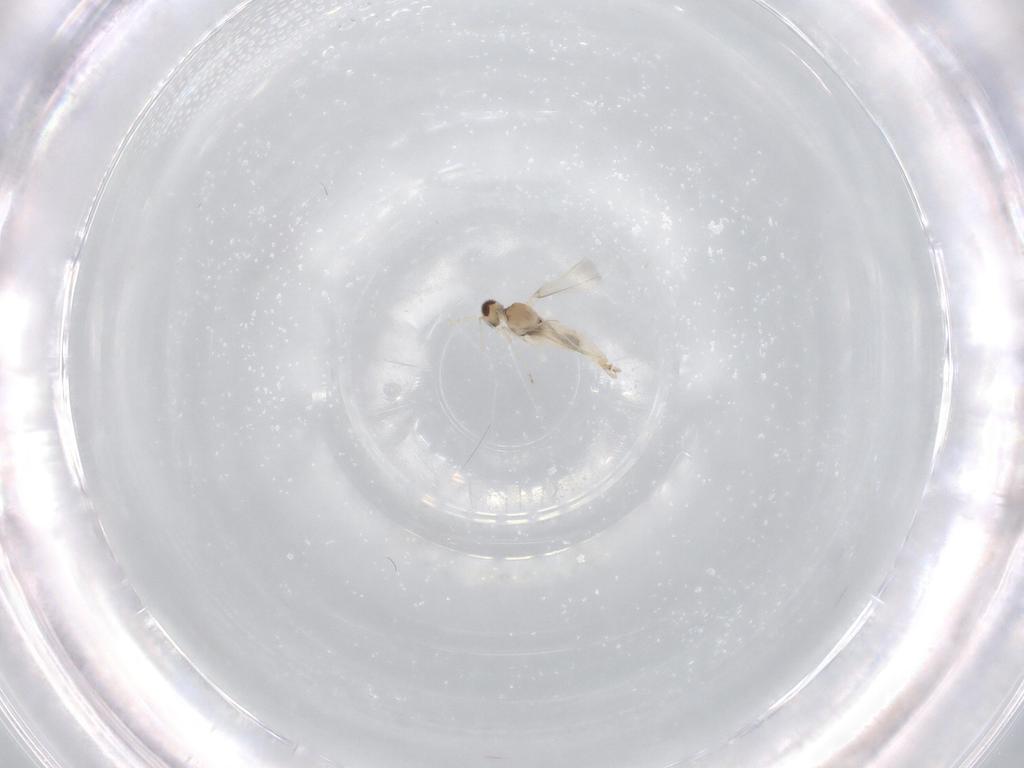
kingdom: Animalia
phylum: Arthropoda
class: Insecta
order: Diptera
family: Cecidomyiidae
